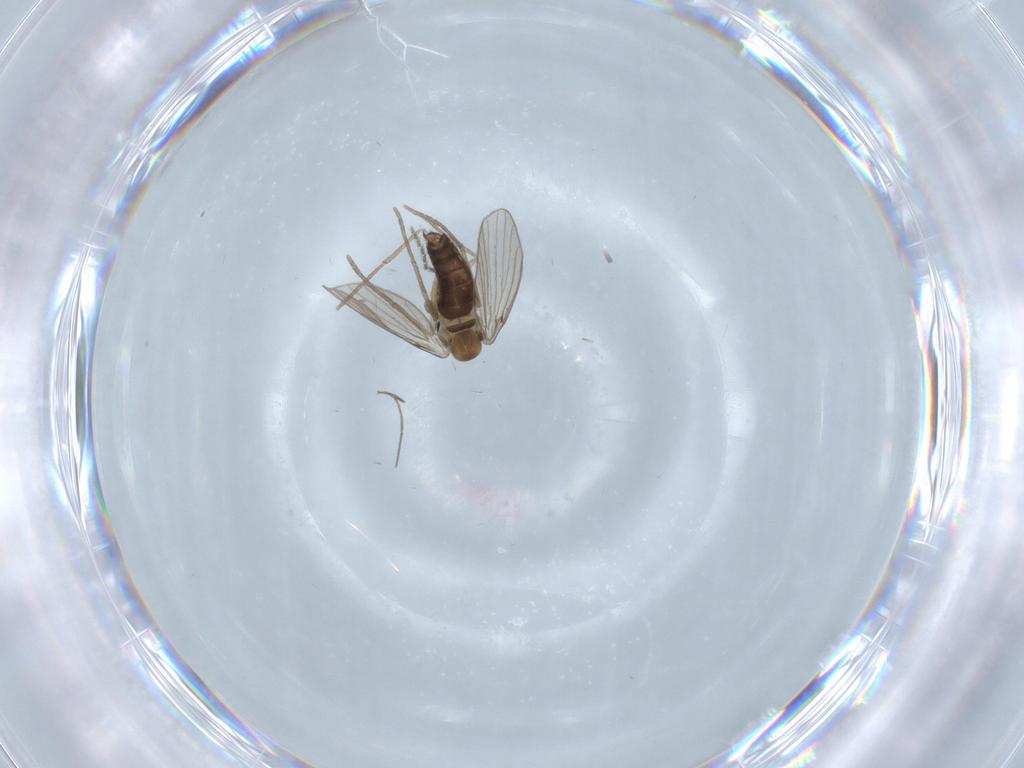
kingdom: Animalia
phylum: Arthropoda
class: Insecta
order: Diptera
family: Psychodidae
